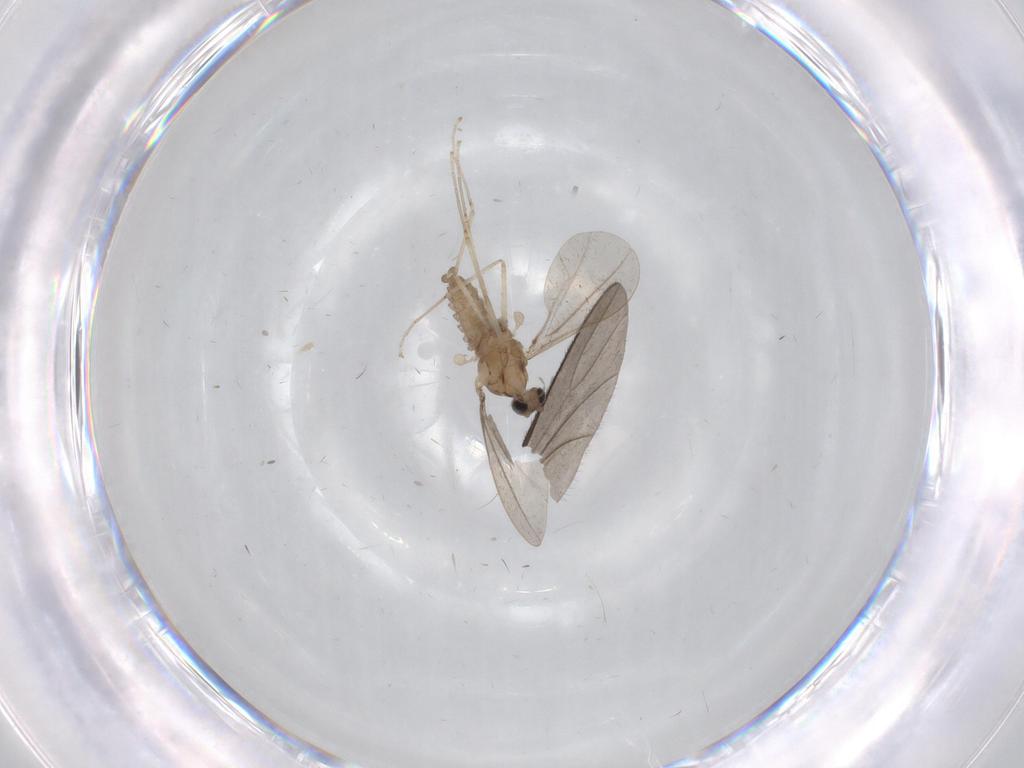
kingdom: Animalia
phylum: Arthropoda
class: Insecta
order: Diptera
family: Cecidomyiidae
